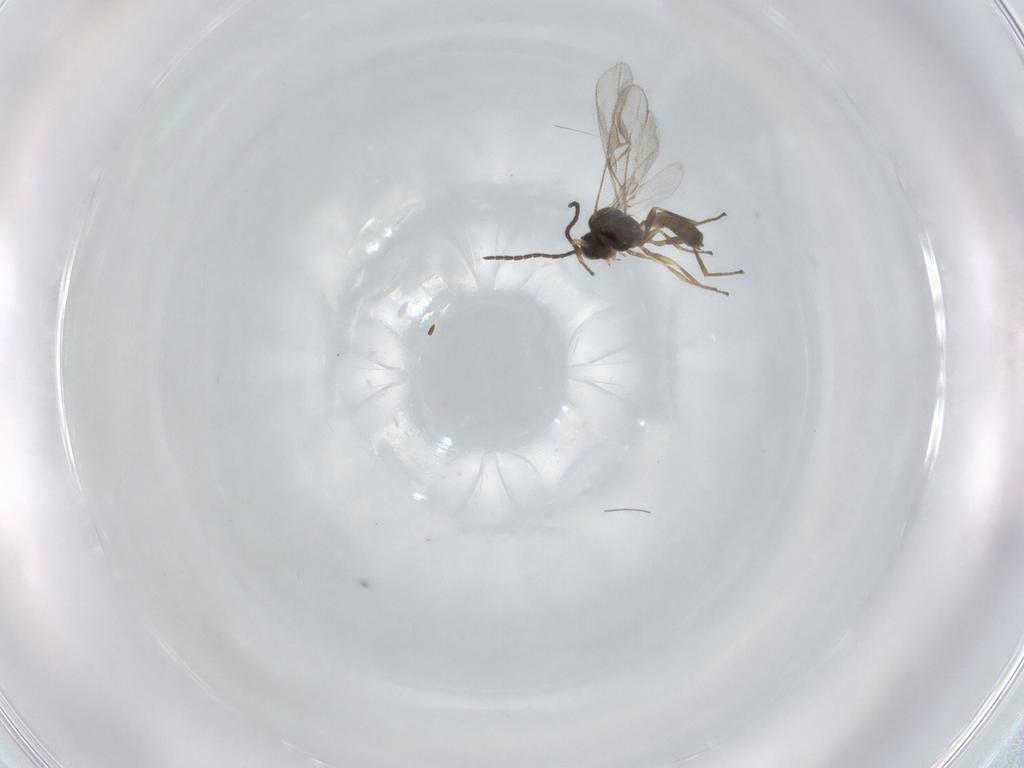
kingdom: Animalia
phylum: Arthropoda
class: Insecta
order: Hymenoptera
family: Braconidae
